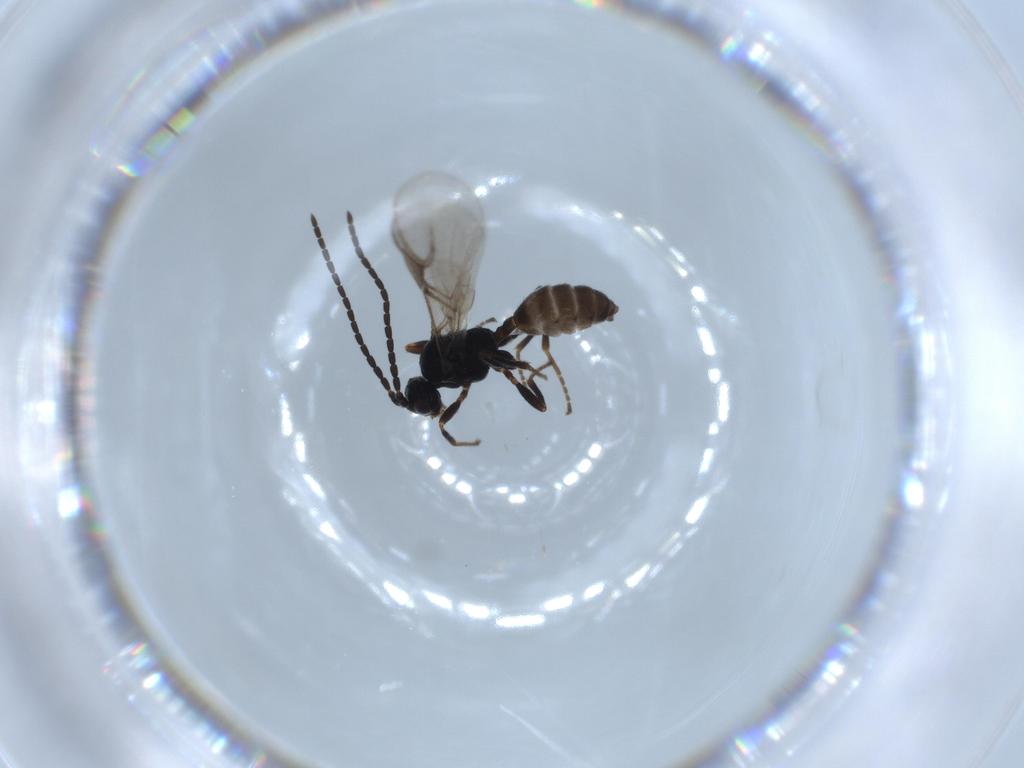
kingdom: Animalia
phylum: Arthropoda
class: Insecta
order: Hymenoptera
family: Braconidae
